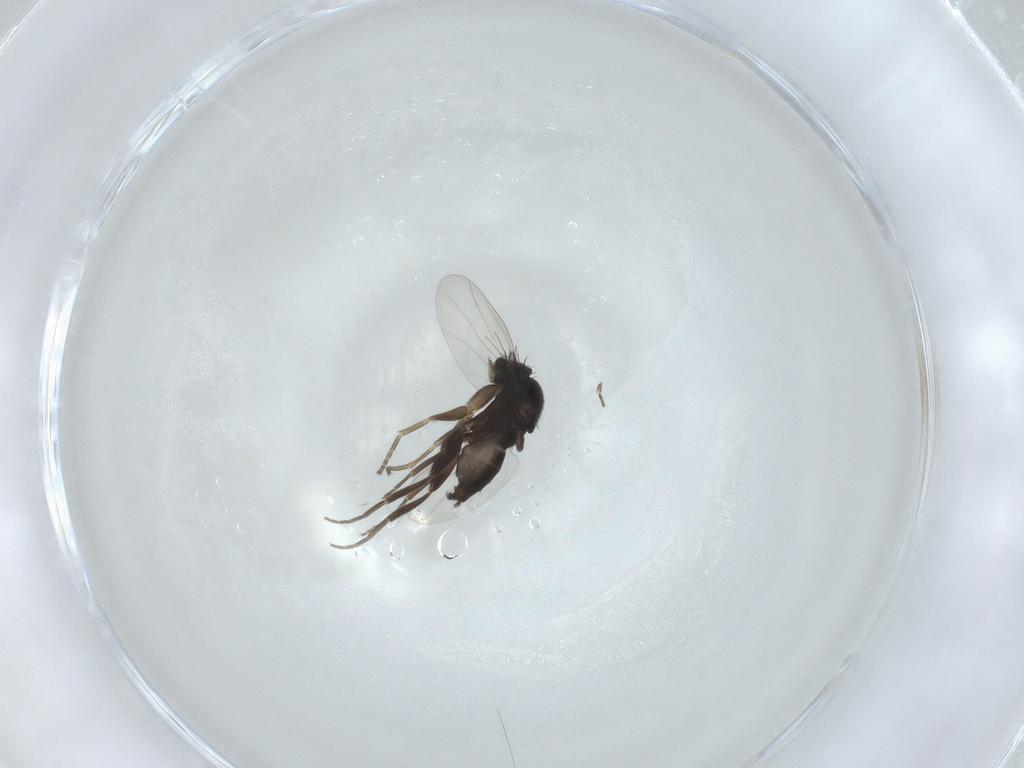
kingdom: Animalia
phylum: Arthropoda
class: Insecta
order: Diptera
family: Phoridae
